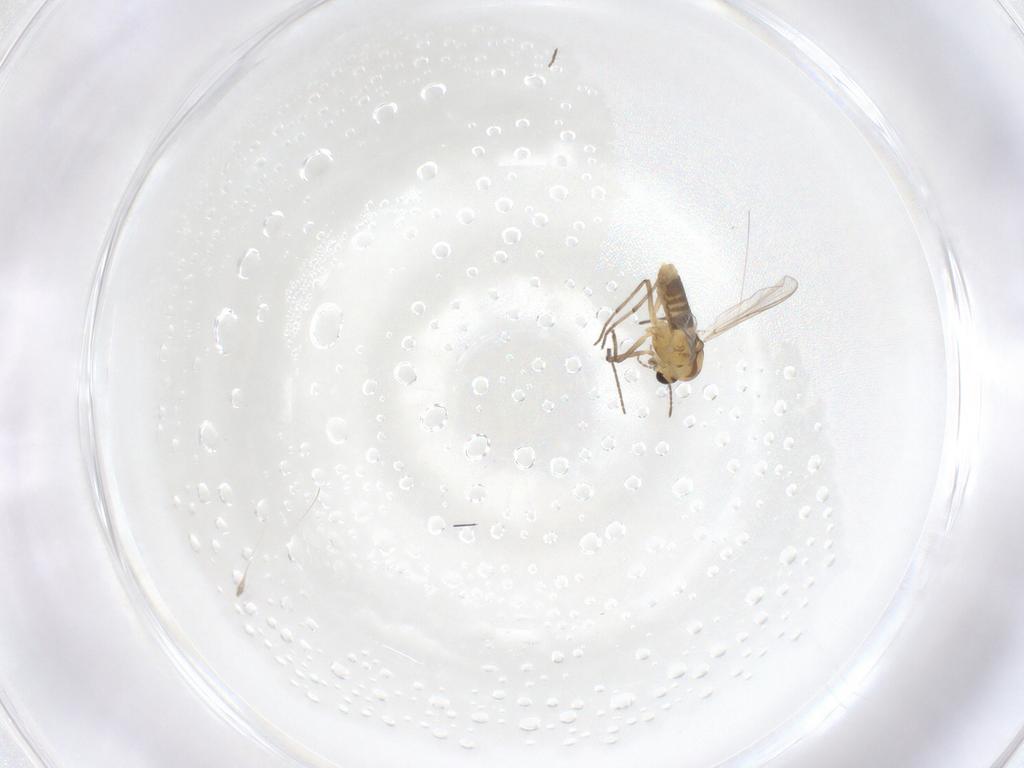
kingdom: Animalia
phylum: Arthropoda
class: Insecta
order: Diptera
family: Chironomidae
